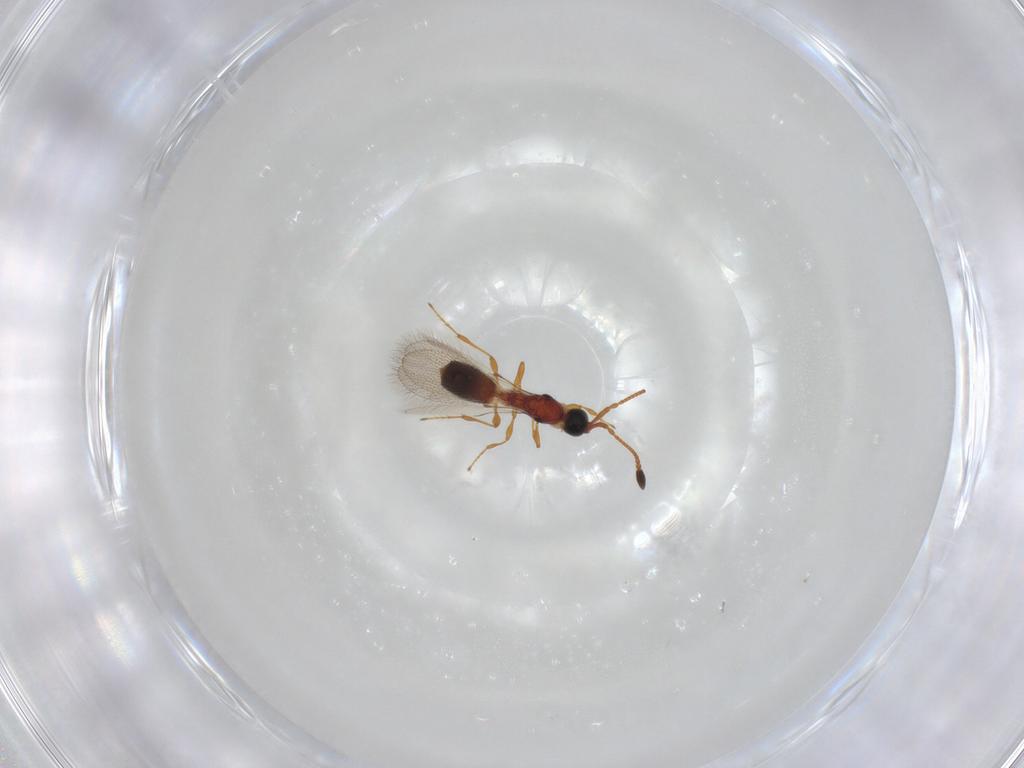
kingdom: Animalia
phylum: Arthropoda
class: Insecta
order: Hymenoptera
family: Diapriidae
